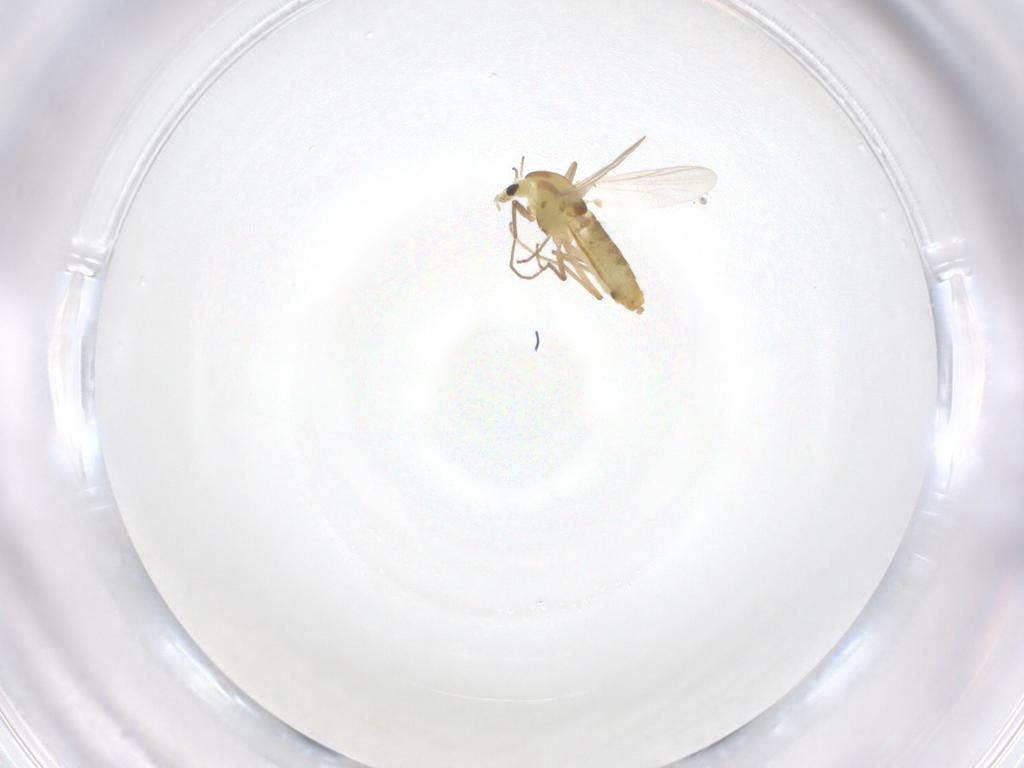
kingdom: Animalia
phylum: Arthropoda
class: Insecta
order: Diptera
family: Chironomidae
